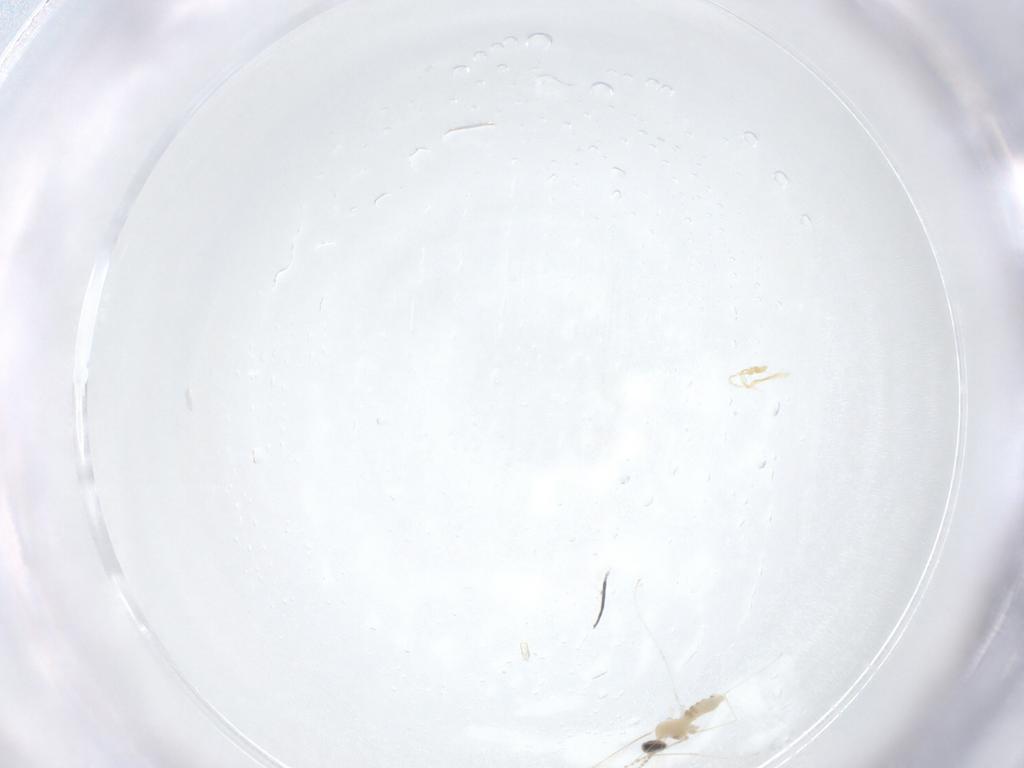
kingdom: Animalia
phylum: Arthropoda
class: Insecta
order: Diptera
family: Cecidomyiidae
